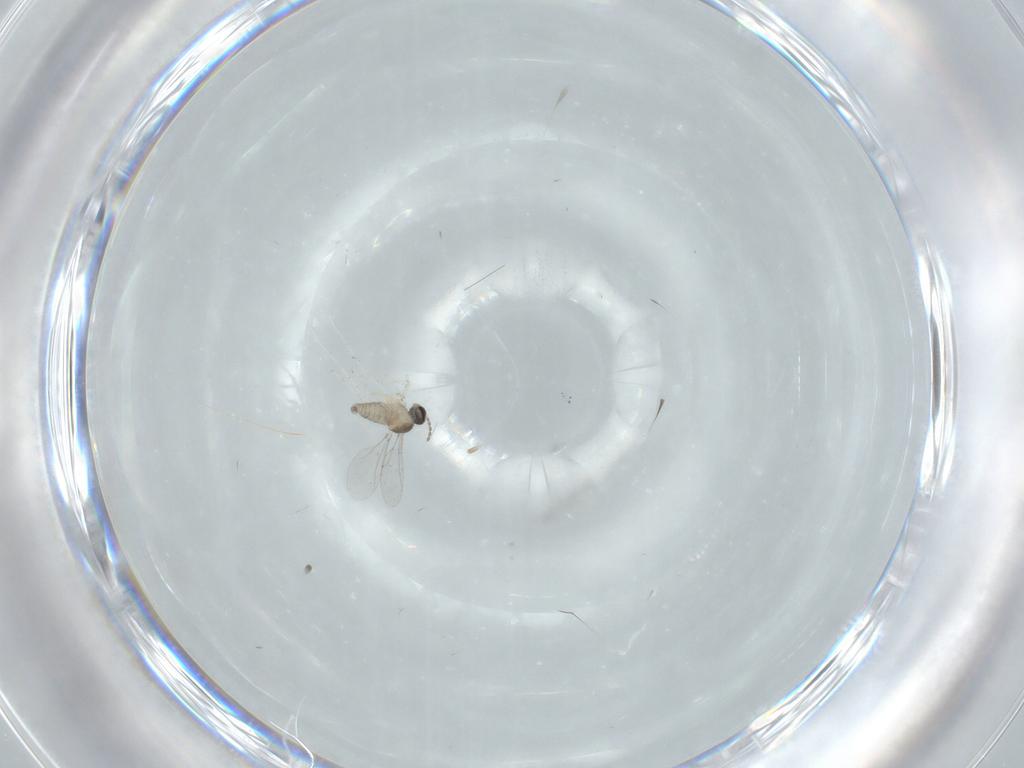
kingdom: Animalia
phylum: Arthropoda
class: Insecta
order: Diptera
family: Cecidomyiidae
